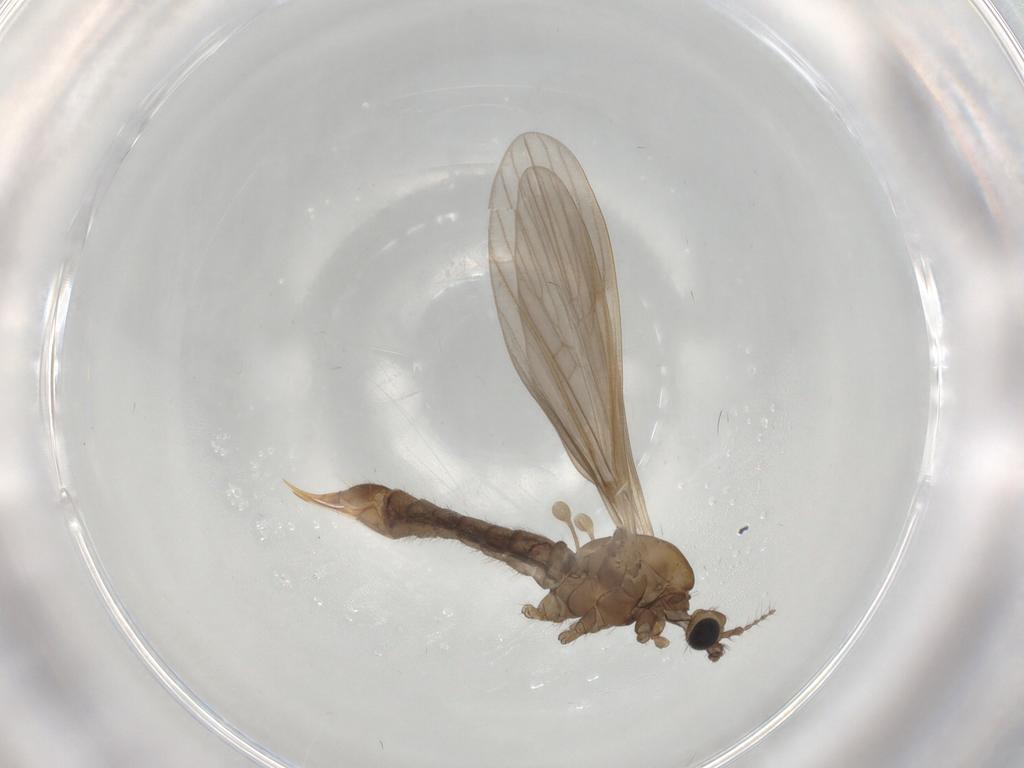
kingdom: Animalia
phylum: Arthropoda
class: Insecta
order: Diptera
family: Limoniidae
